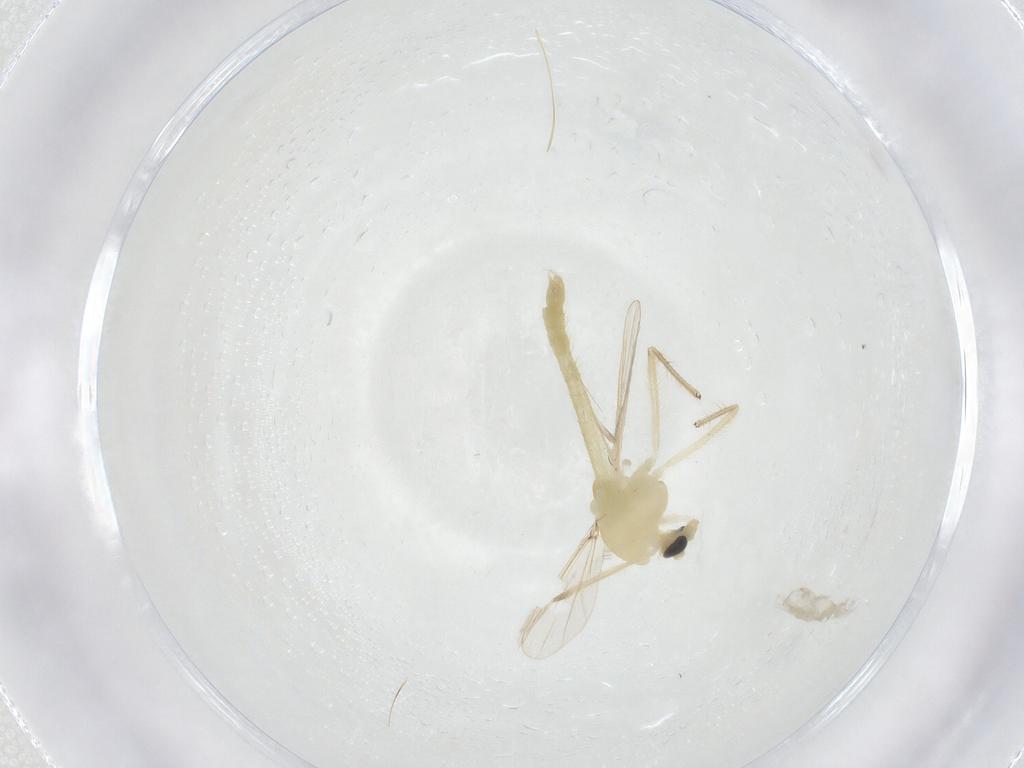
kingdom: Animalia
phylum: Arthropoda
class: Insecta
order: Diptera
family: Chironomidae
